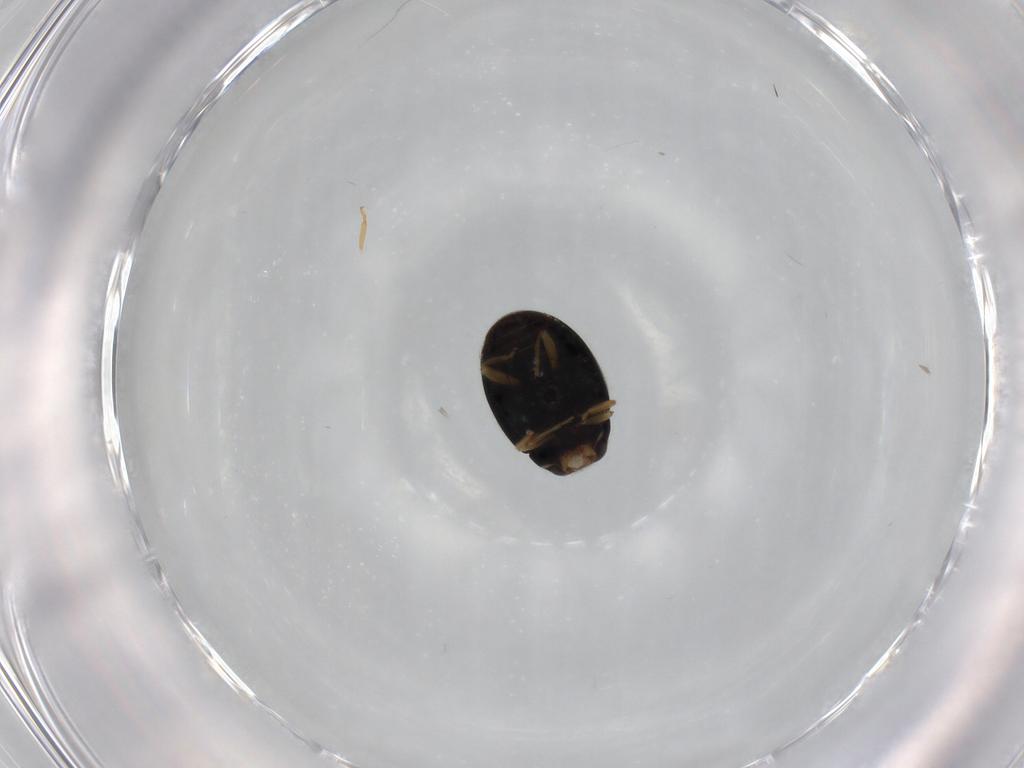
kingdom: Animalia
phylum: Arthropoda
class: Insecta
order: Coleoptera
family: Coccinellidae
